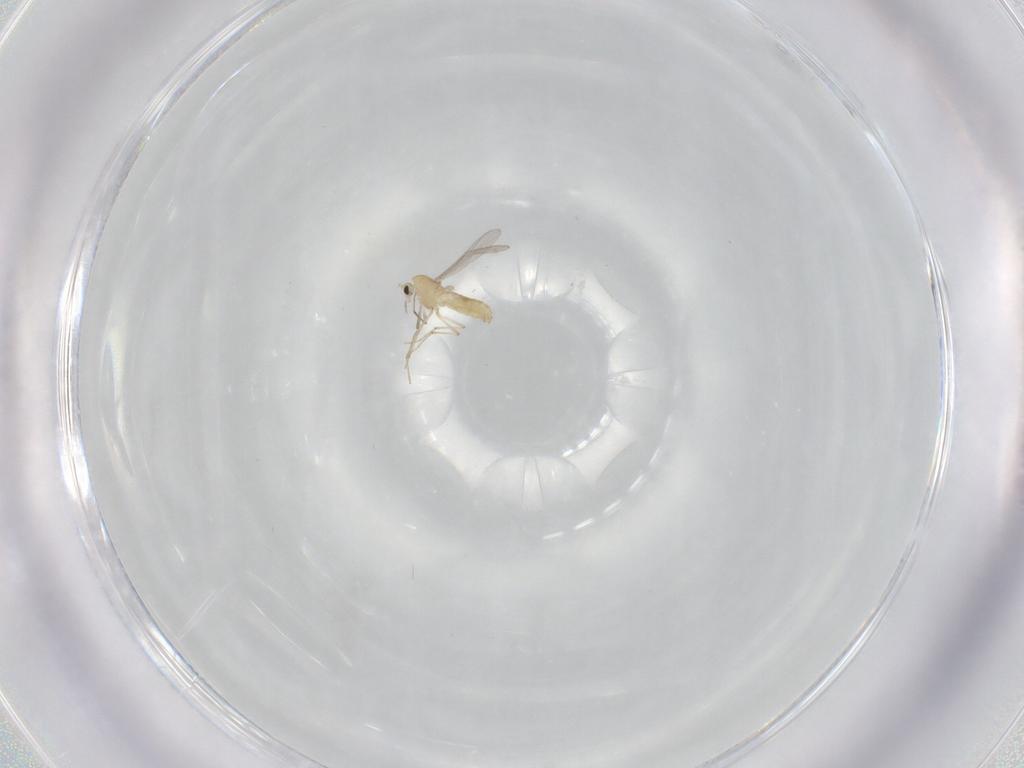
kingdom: Animalia
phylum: Arthropoda
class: Insecta
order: Diptera
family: Chironomidae
